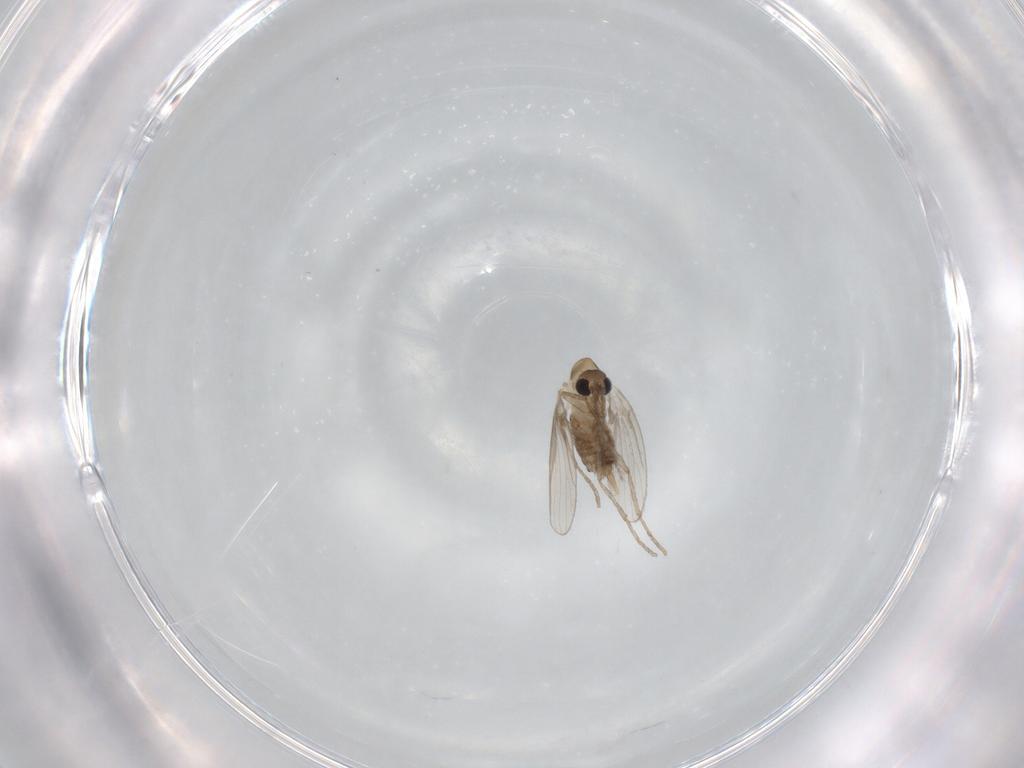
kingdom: Animalia
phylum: Arthropoda
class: Insecta
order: Diptera
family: Psychodidae
